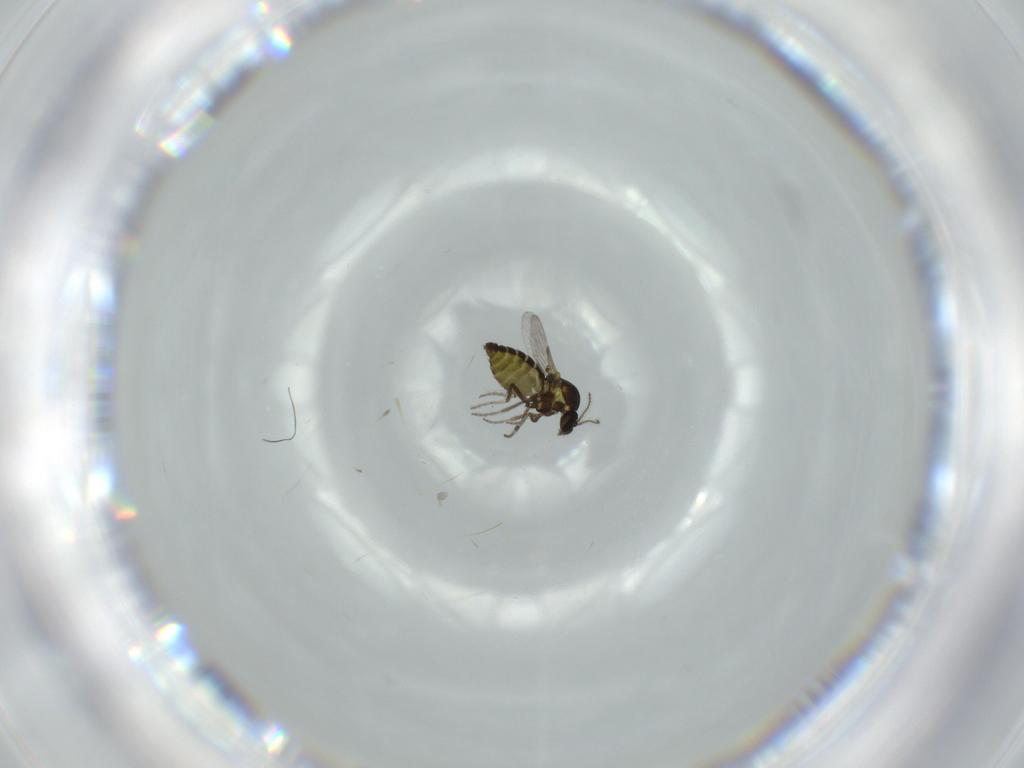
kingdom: Animalia
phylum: Arthropoda
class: Insecta
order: Diptera
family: Ceratopogonidae
